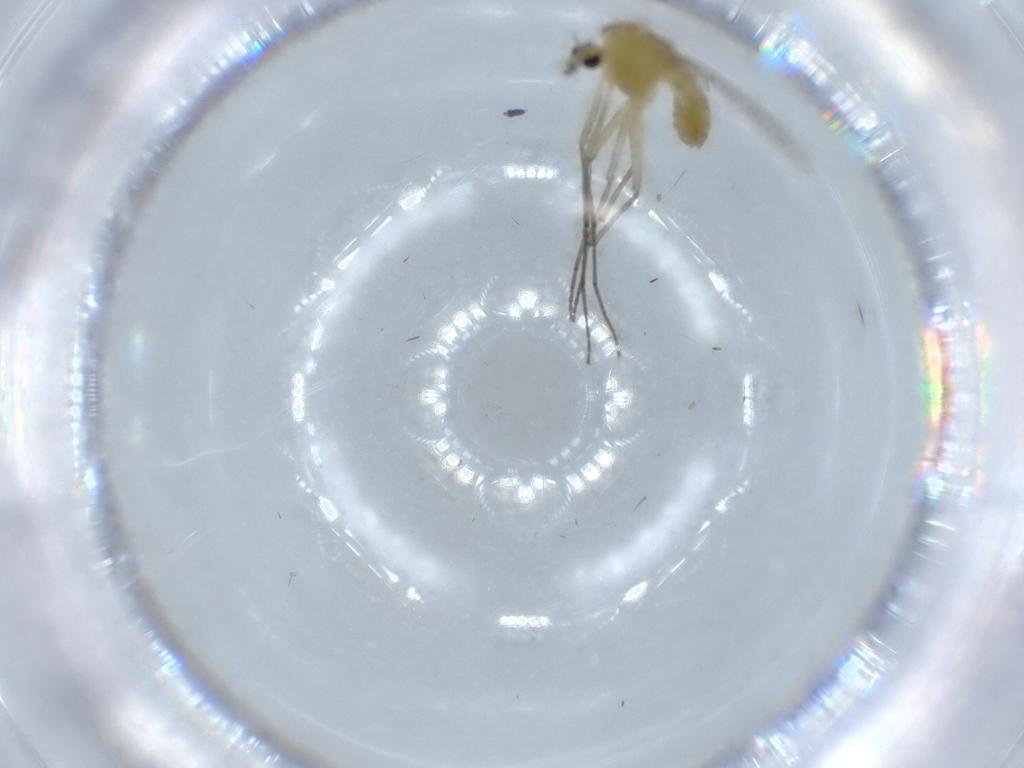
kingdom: Animalia
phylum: Arthropoda
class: Insecta
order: Diptera
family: Chironomidae
